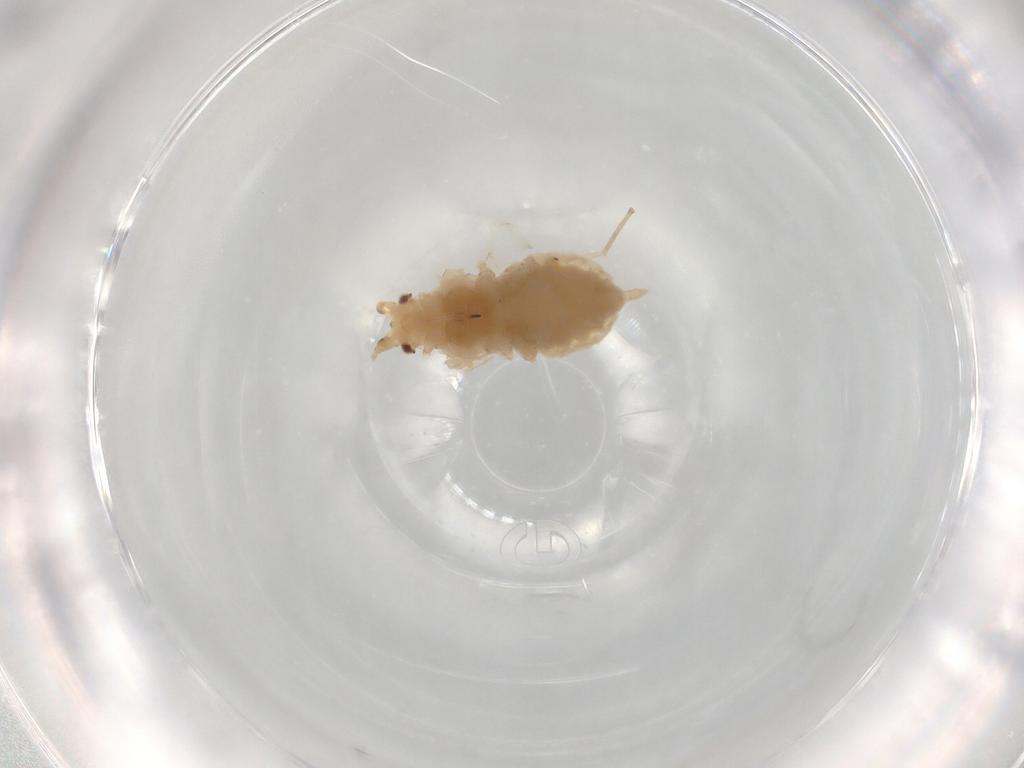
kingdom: Animalia
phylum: Arthropoda
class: Insecta
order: Hemiptera
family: Aphididae
